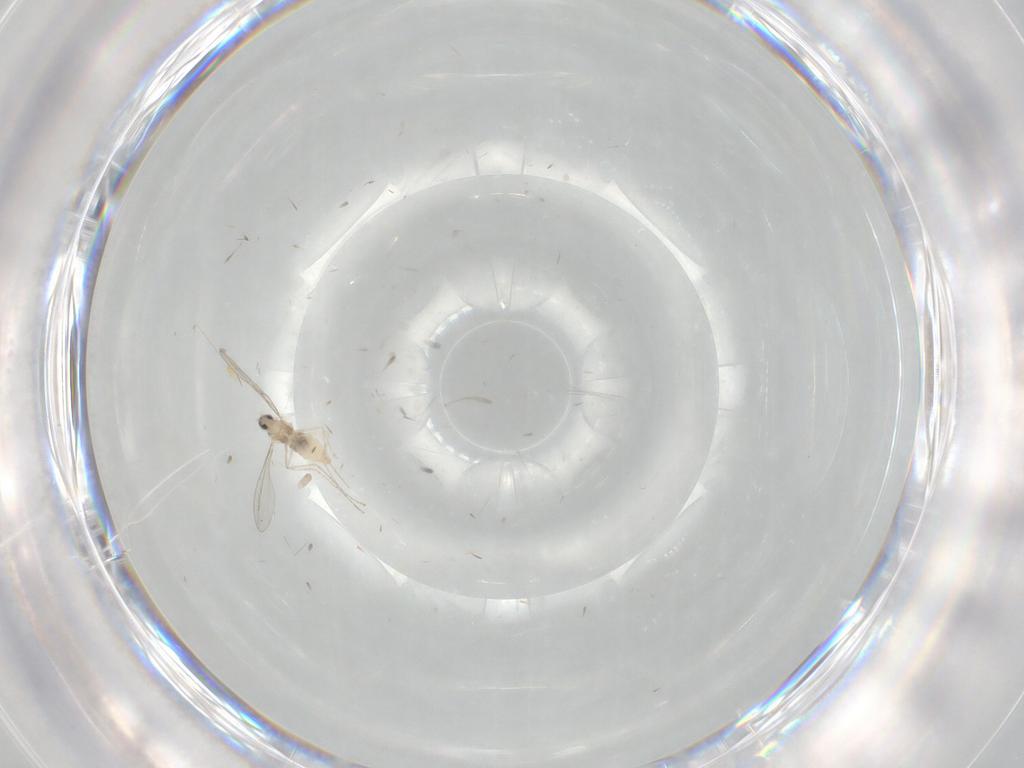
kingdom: Animalia
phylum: Arthropoda
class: Insecta
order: Diptera
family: Cecidomyiidae
